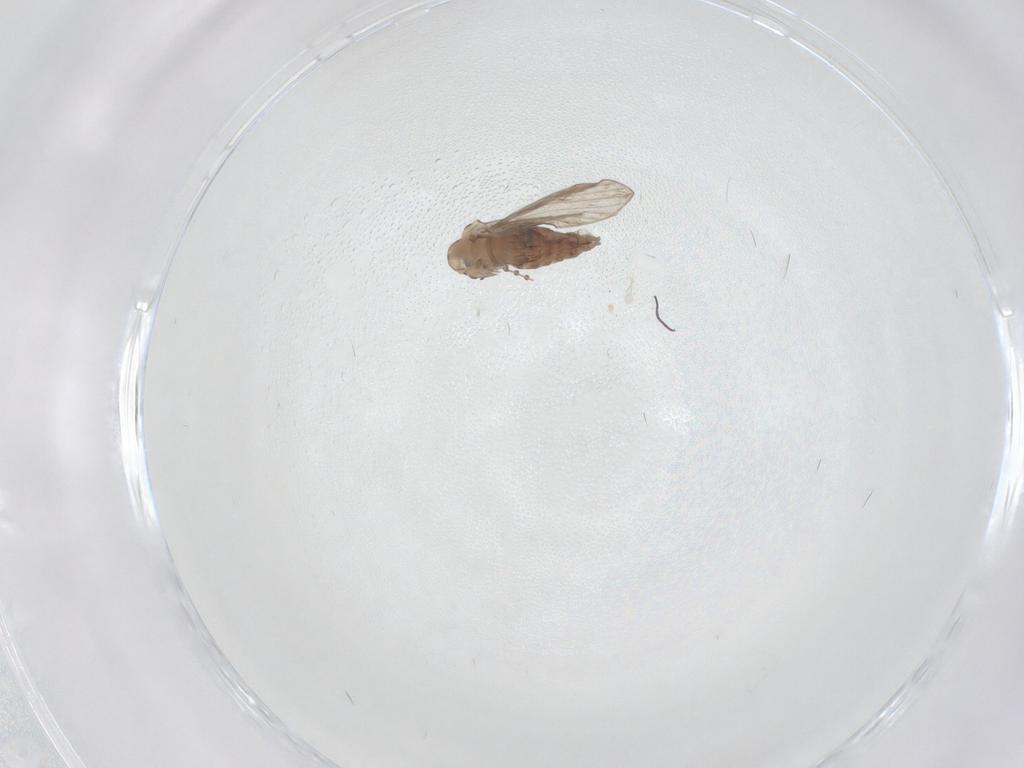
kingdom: Animalia
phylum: Arthropoda
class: Insecta
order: Diptera
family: Psychodidae
